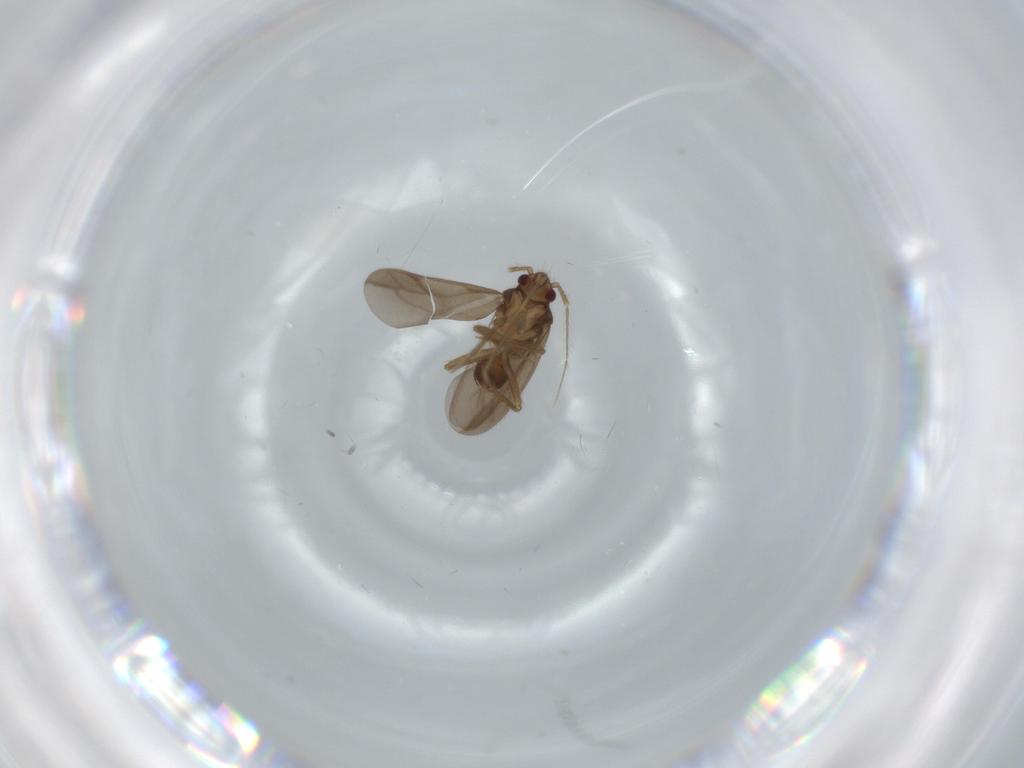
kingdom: Animalia
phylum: Arthropoda
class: Insecta
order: Hemiptera
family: Ceratocombidae
